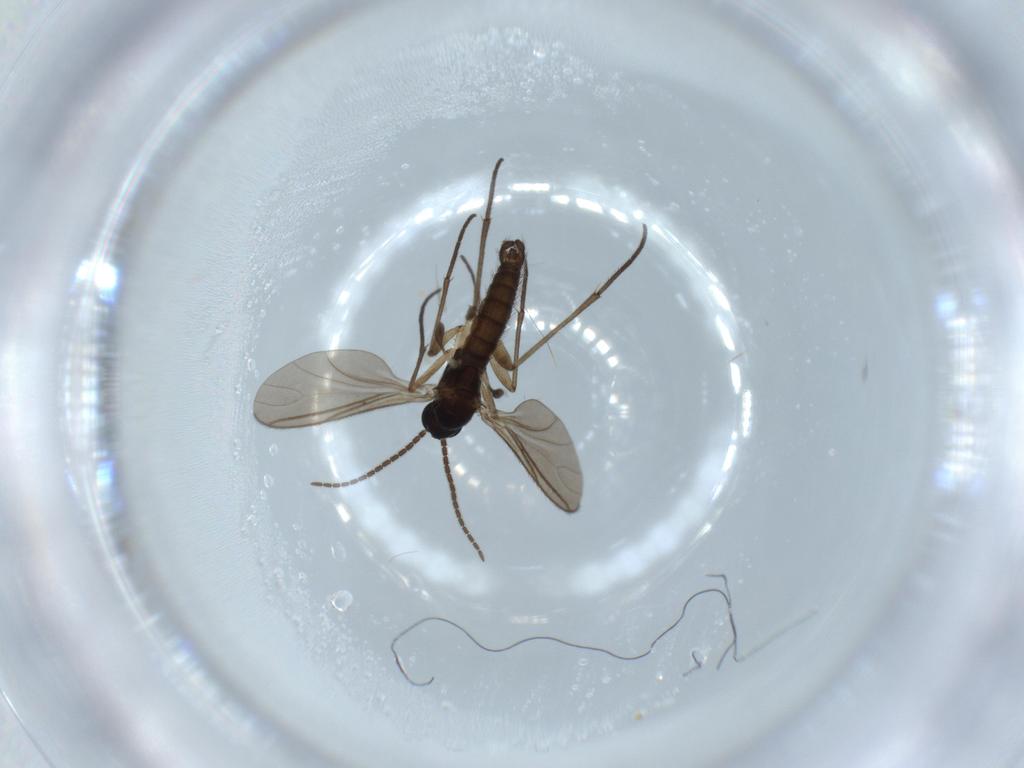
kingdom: Animalia
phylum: Arthropoda
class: Insecta
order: Diptera
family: Sciaridae
